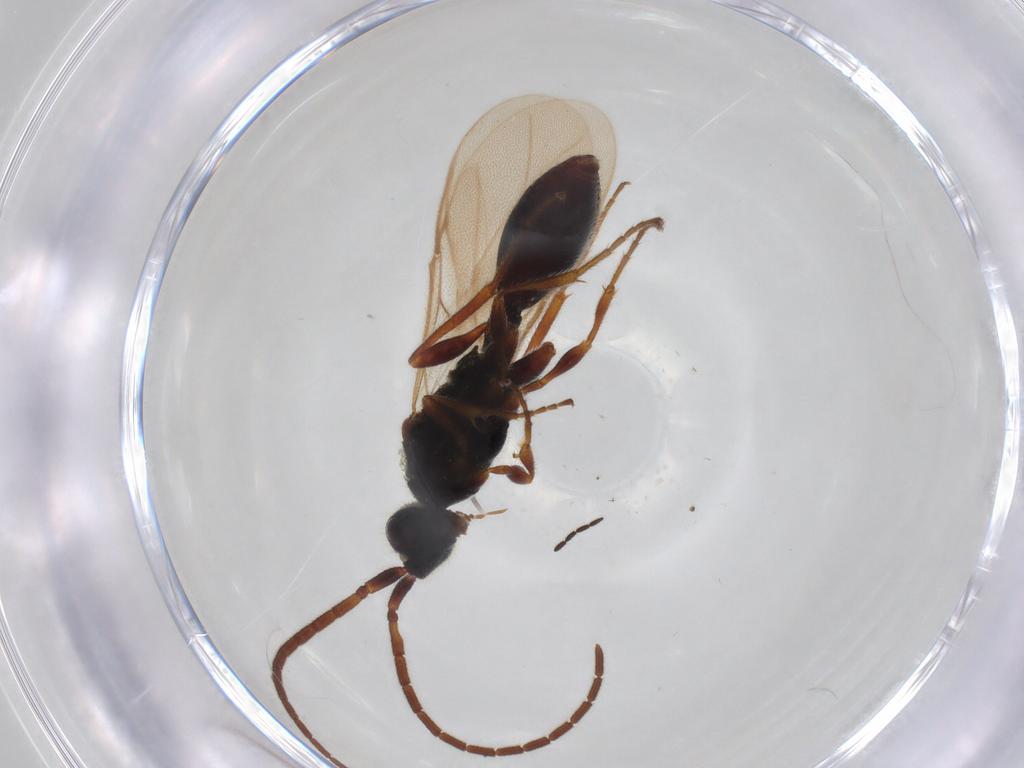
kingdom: Animalia
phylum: Arthropoda
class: Insecta
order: Hymenoptera
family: Diapriidae
